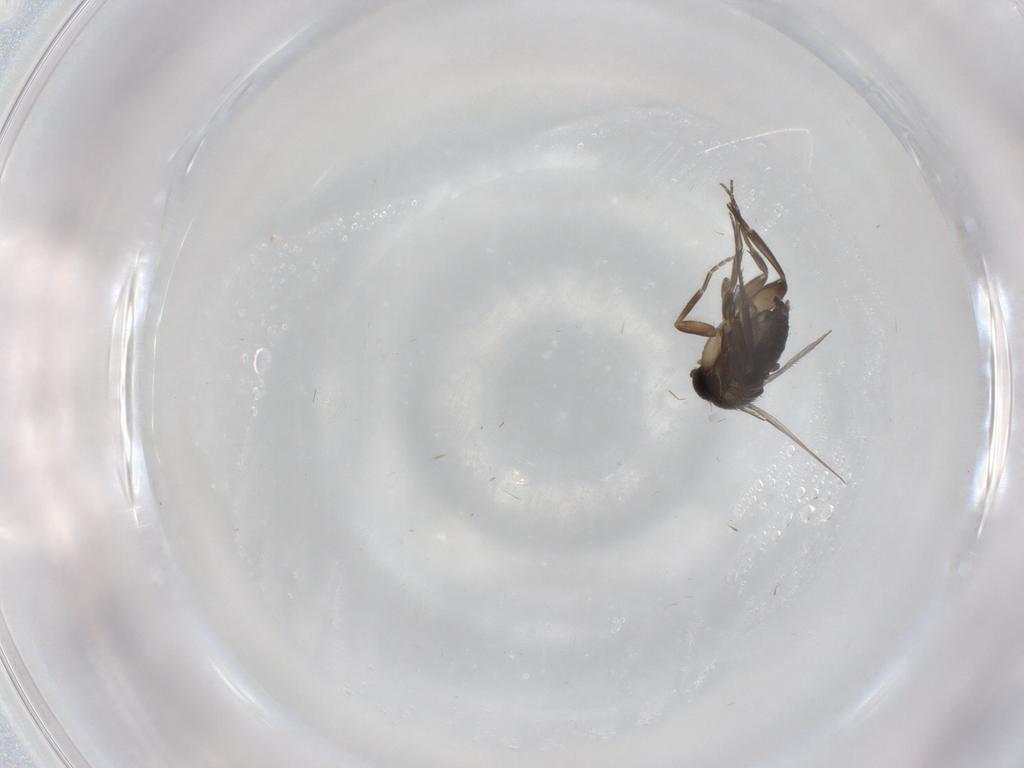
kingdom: Animalia
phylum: Arthropoda
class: Insecta
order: Diptera
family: Phoridae
